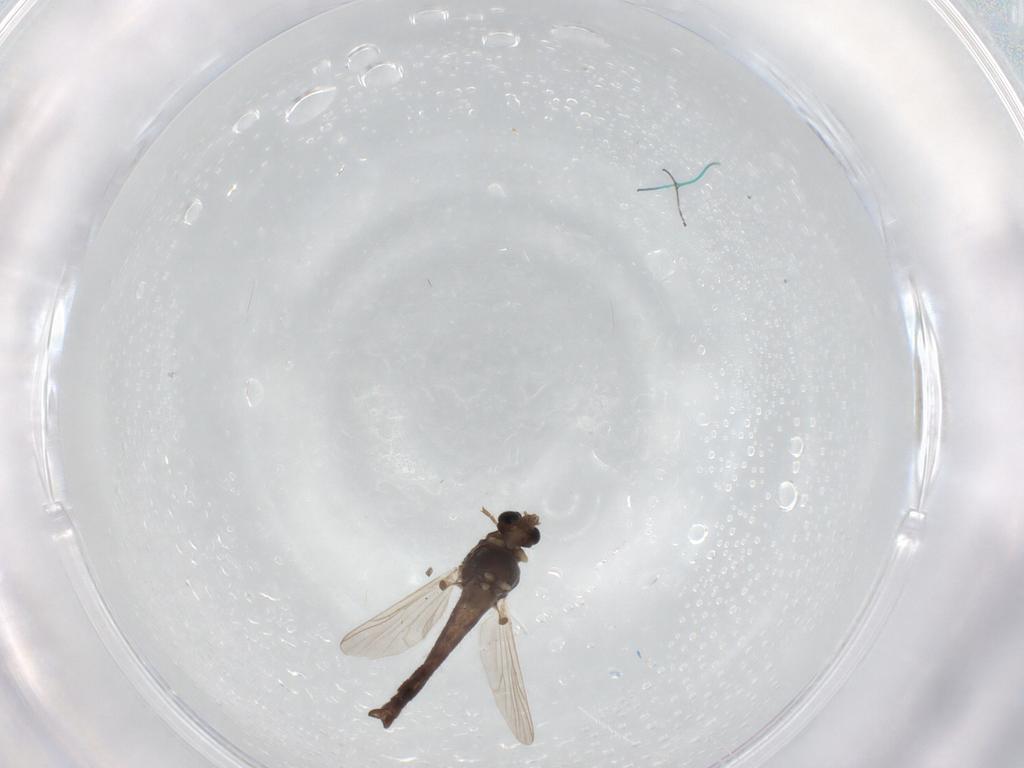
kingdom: Animalia
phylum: Arthropoda
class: Insecta
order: Diptera
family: Chironomidae
